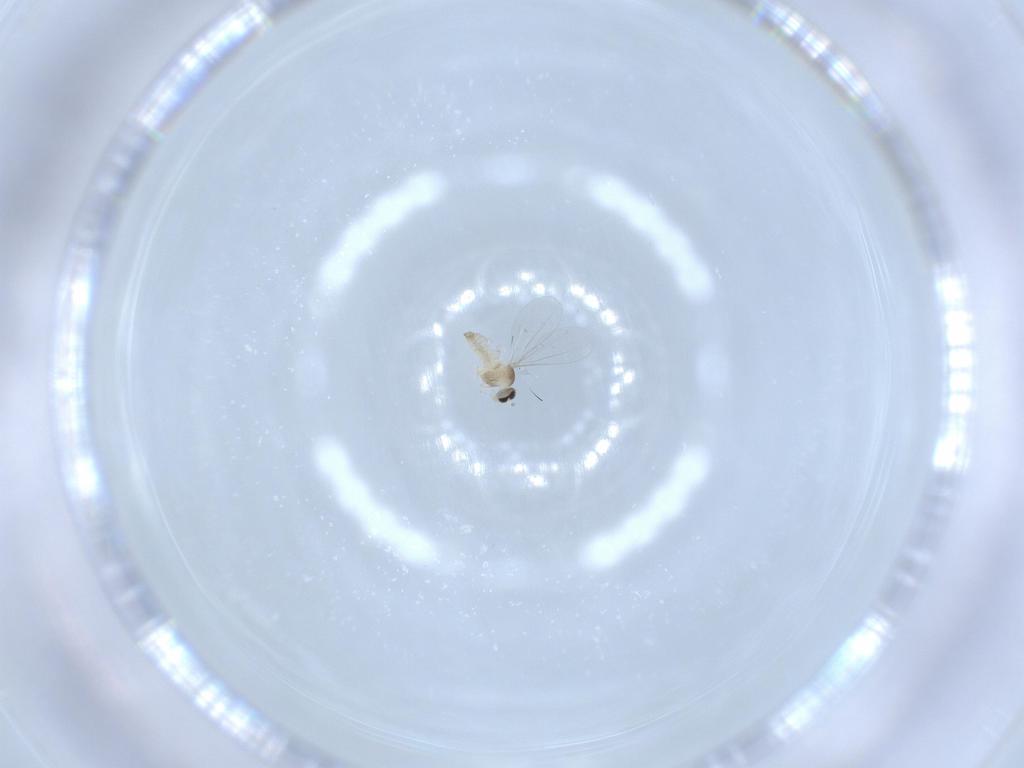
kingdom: Animalia
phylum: Arthropoda
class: Insecta
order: Diptera
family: Cecidomyiidae
